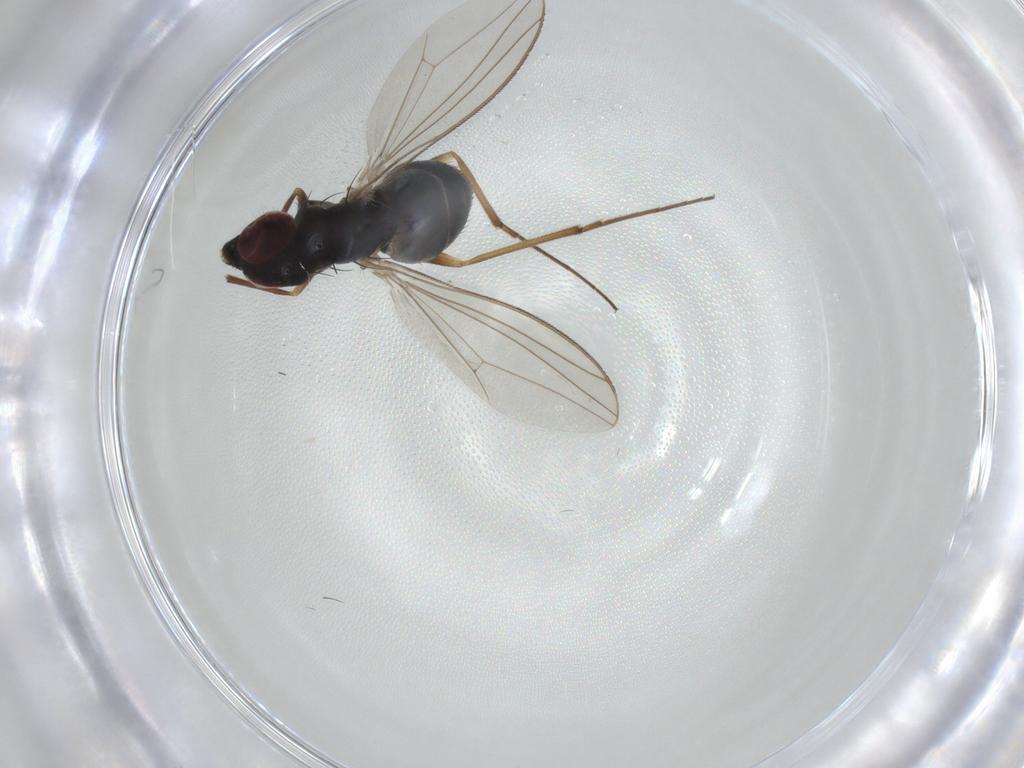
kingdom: Animalia
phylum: Arthropoda
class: Insecta
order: Diptera
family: Dolichopodidae
